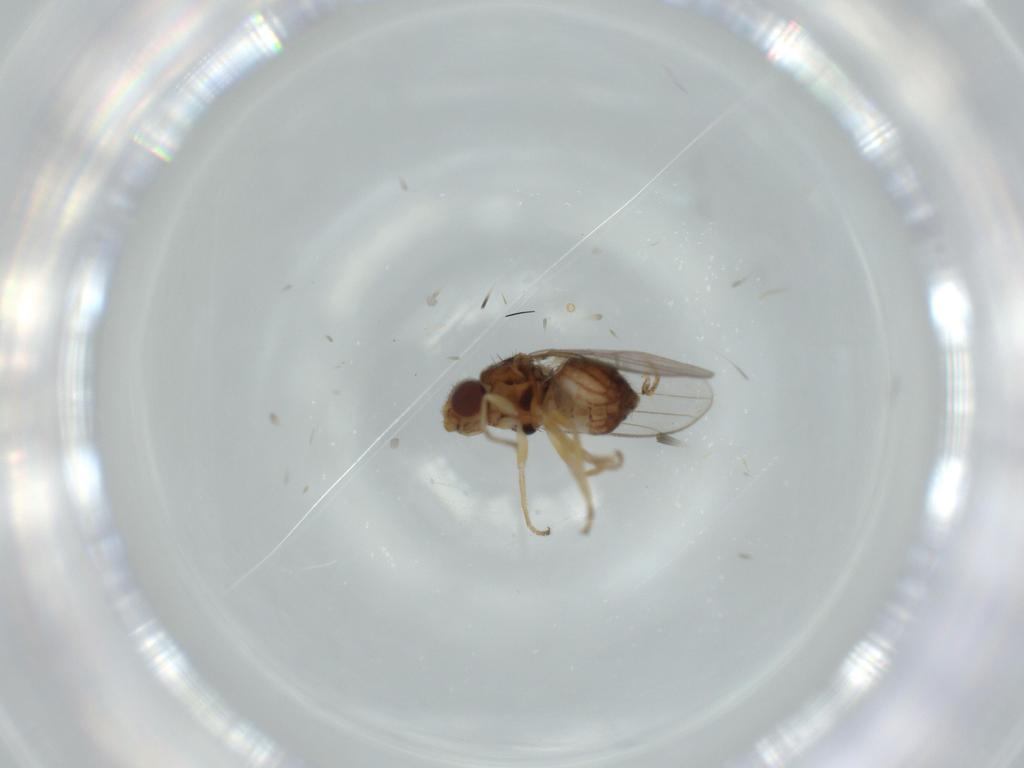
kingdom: Animalia
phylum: Arthropoda
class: Insecta
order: Diptera
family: Chloropidae
